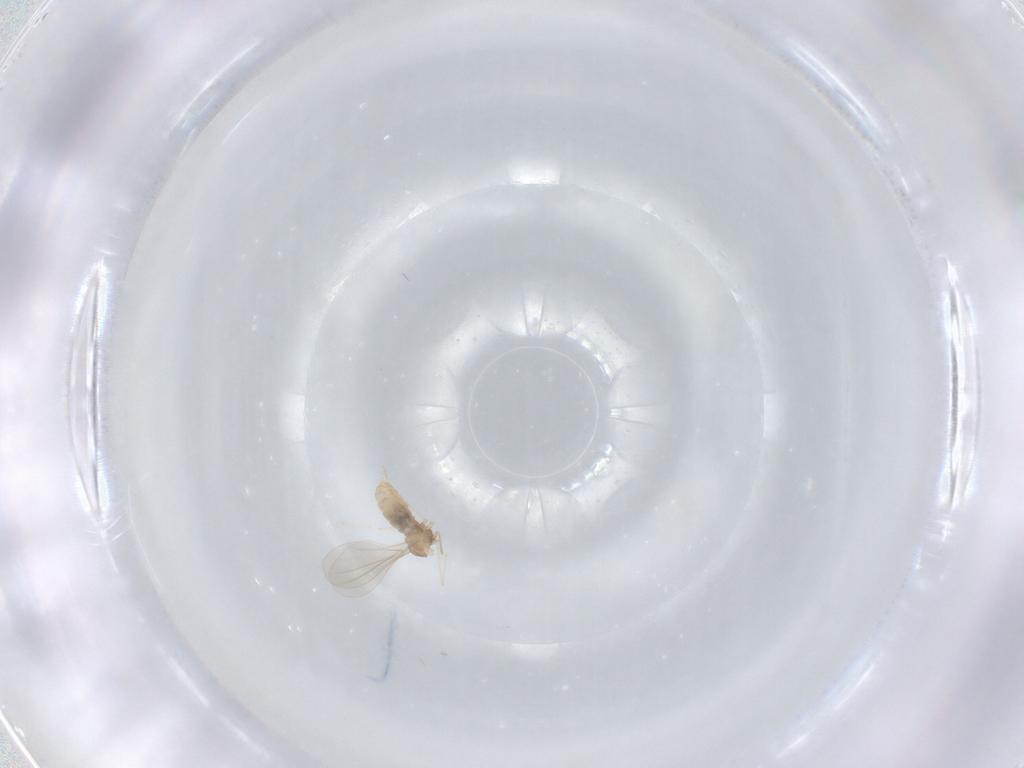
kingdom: Animalia
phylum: Arthropoda
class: Insecta
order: Diptera
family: Cecidomyiidae
